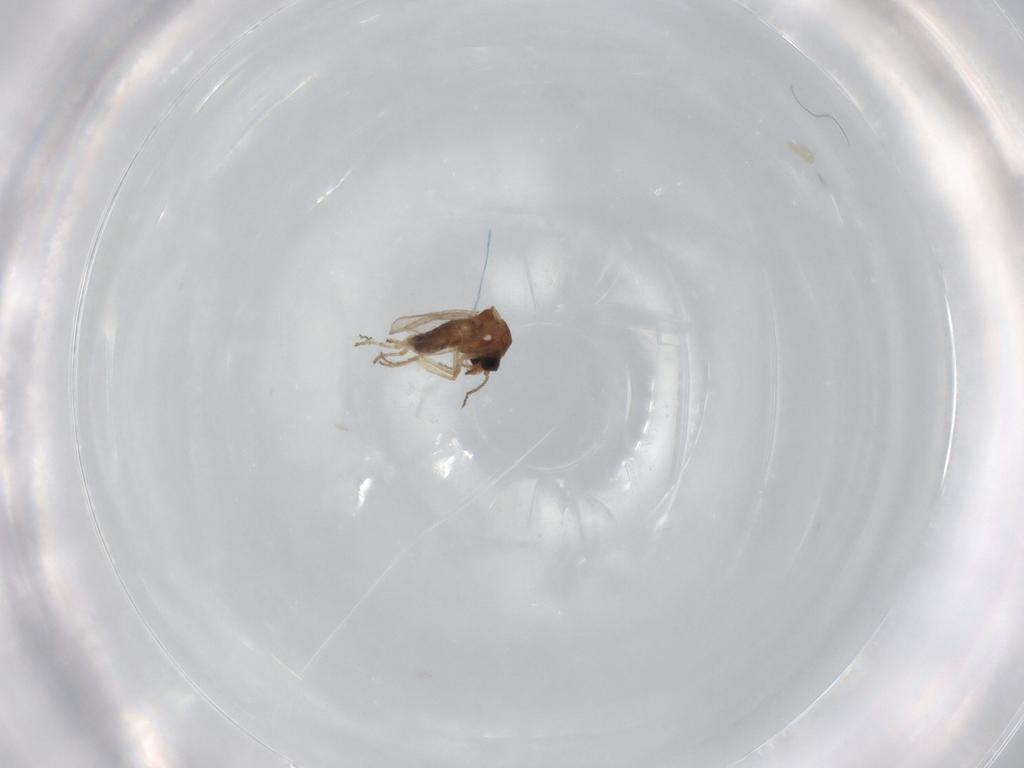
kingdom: Animalia
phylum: Arthropoda
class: Insecta
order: Diptera
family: Ceratopogonidae
